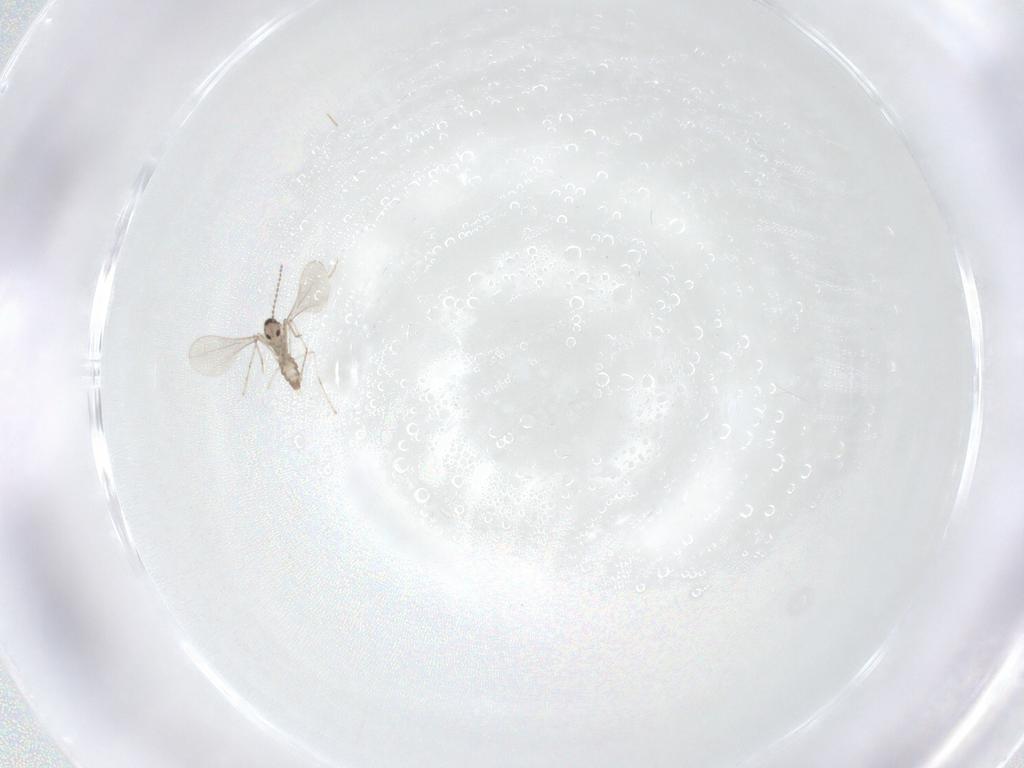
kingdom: Animalia
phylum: Arthropoda
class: Insecta
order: Diptera
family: Cecidomyiidae
